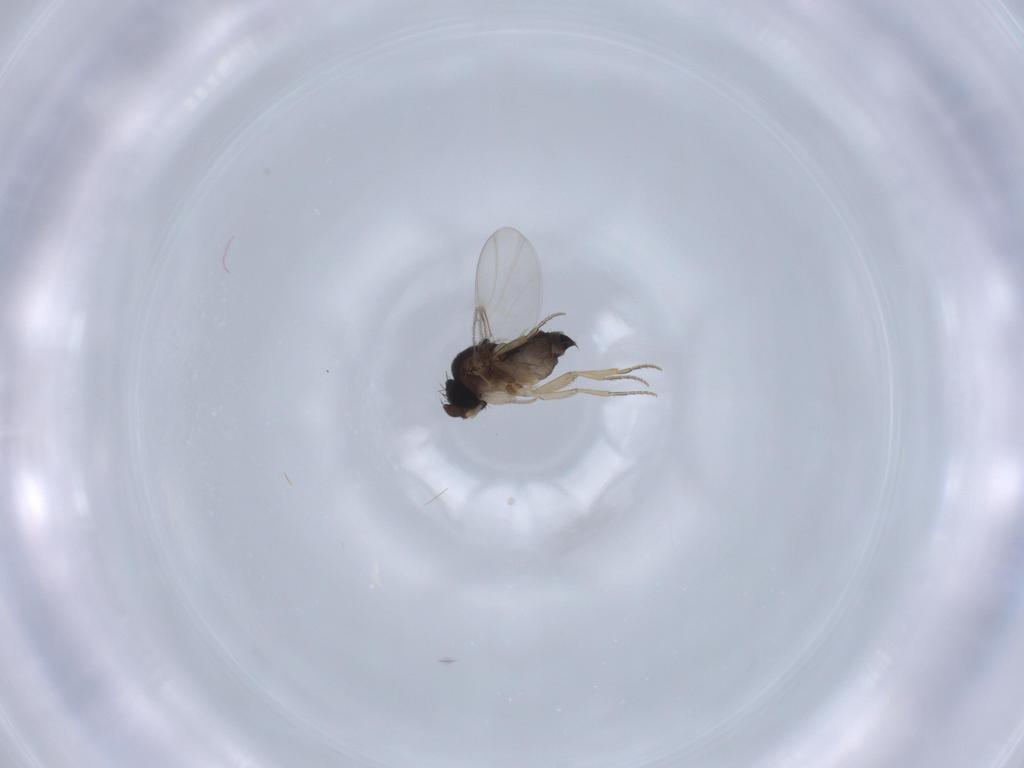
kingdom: Animalia
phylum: Arthropoda
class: Insecta
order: Diptera
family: Phoridae
